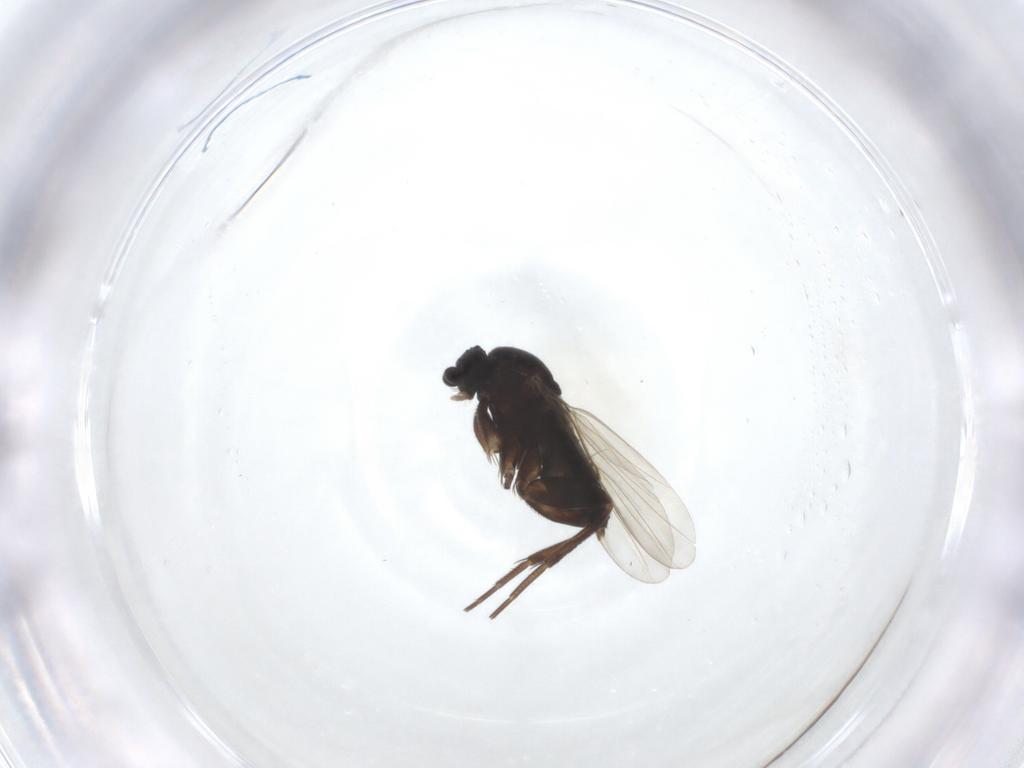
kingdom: Animalia
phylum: Arthropoda
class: Insecta
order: Diptera
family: Phoridae
